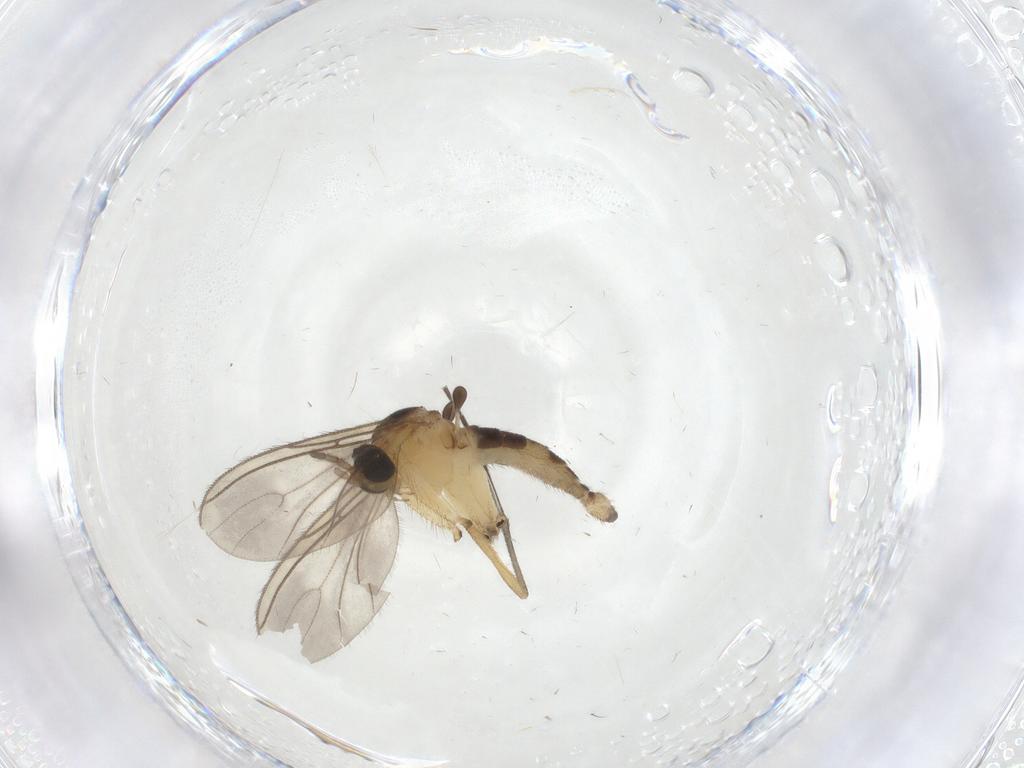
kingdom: Animalia
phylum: Arthropoda
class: Insecta
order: Diptera
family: Sciaridae
